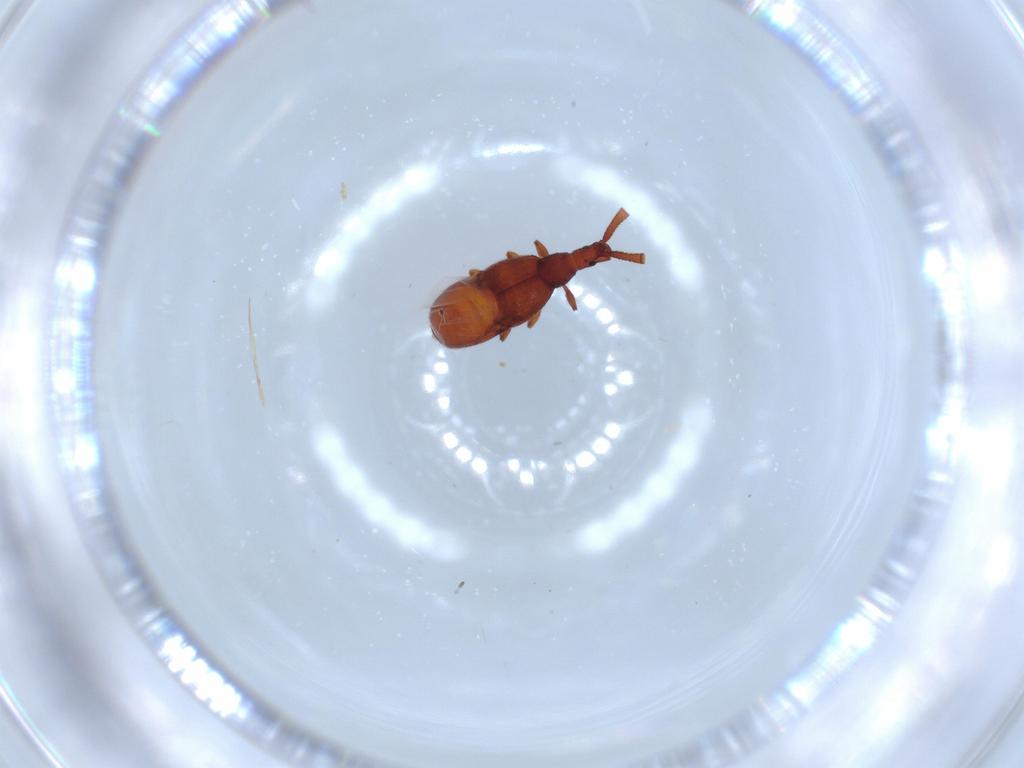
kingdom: Animalia
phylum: Arthropoda
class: Insecta
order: Coleoptera
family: Staphylinidae
